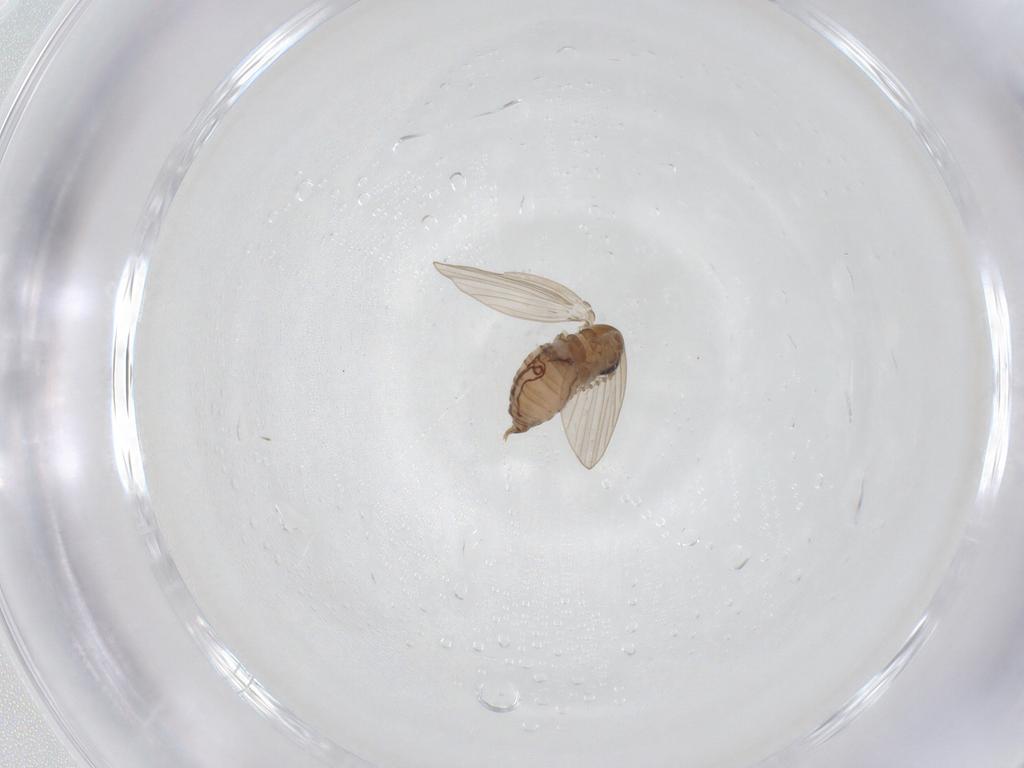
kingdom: Animalia
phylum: Arthropoda
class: Insecta
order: Diptera
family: Psychodidae
